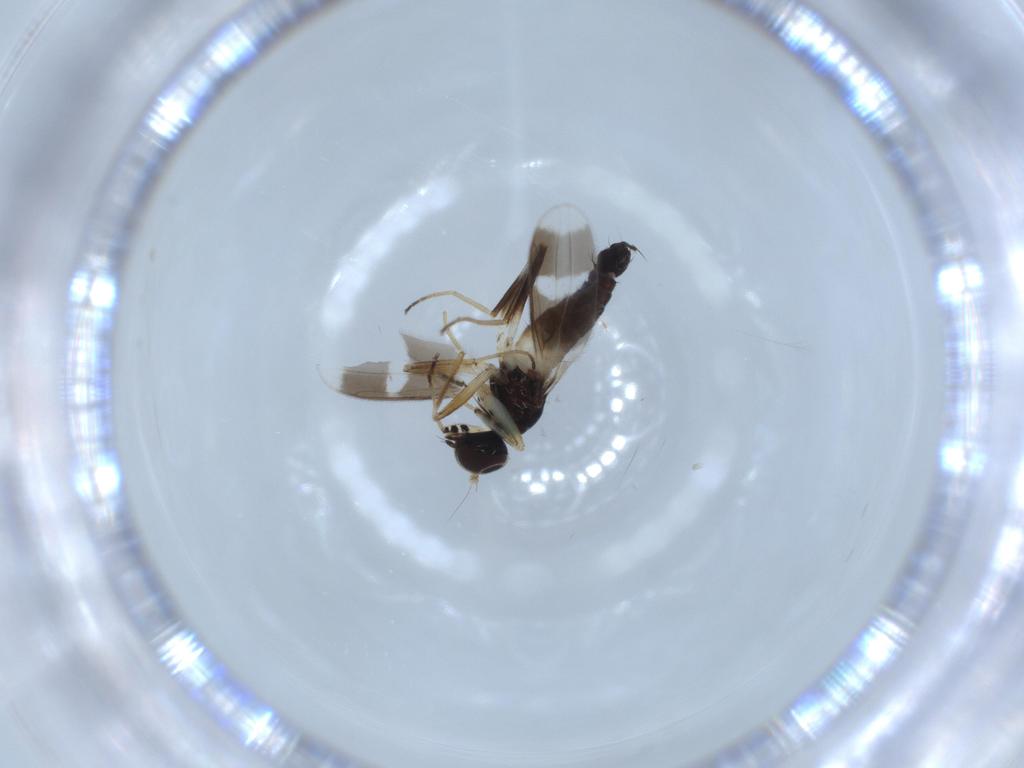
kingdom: Animalia
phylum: Arthropoda
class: Insecta
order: Diptera
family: Hybotidae
